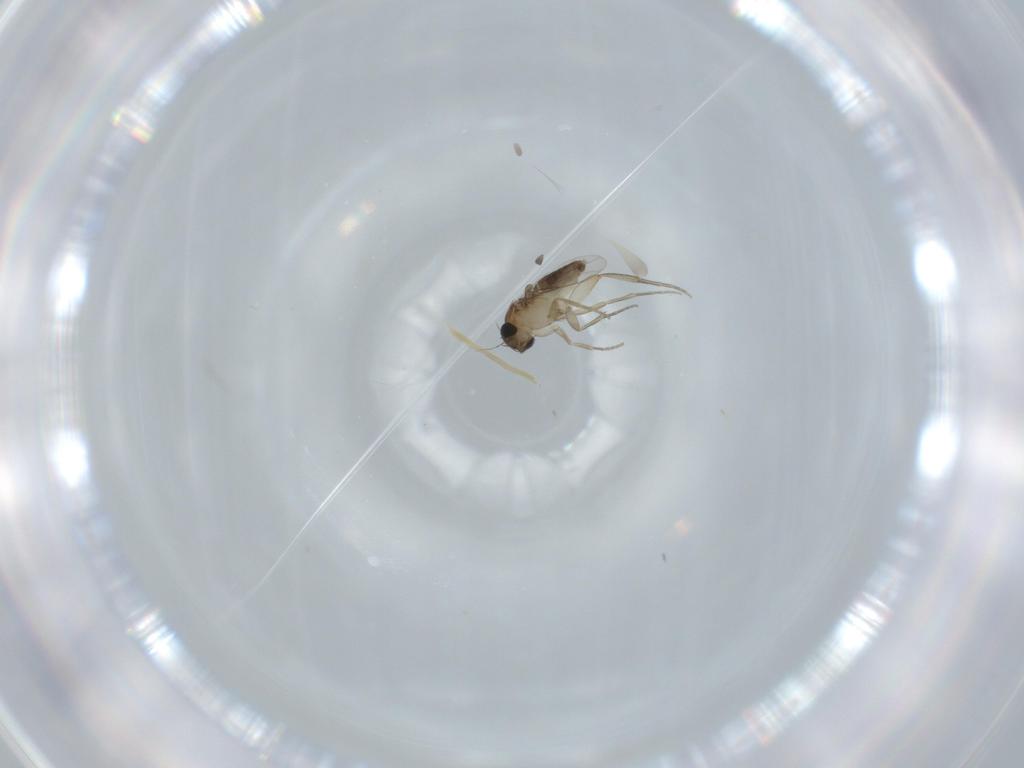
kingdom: Animalia
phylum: Arthropoda
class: Insecta
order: Diptera
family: Phoridae
